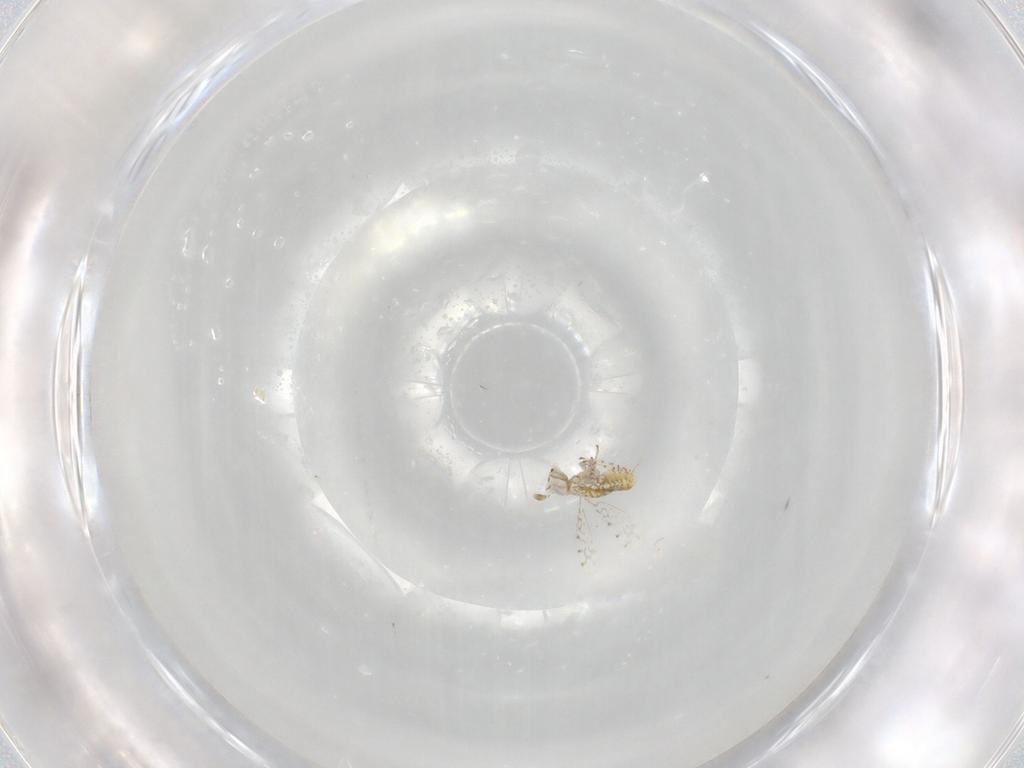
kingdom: Animalia
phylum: Arthropoda
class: Insecta
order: Hymenoptera
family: Aphelinidae
